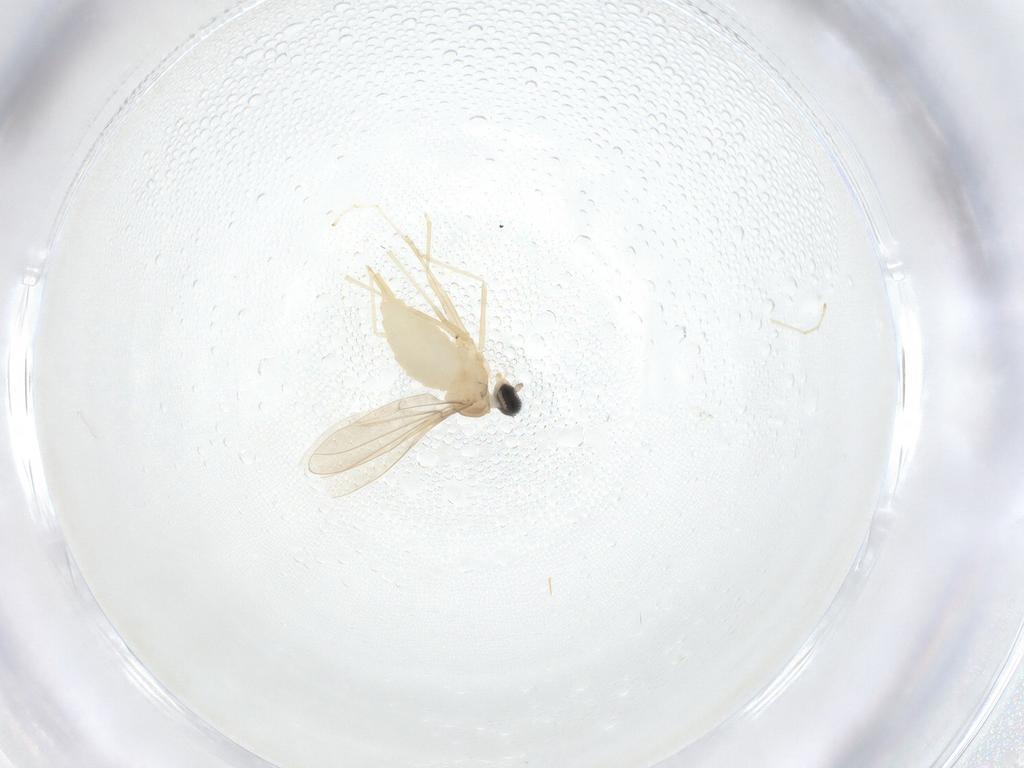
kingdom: Animalia
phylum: Arthropoda
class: Insecta
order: Diptera
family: Cecidomyiidae
